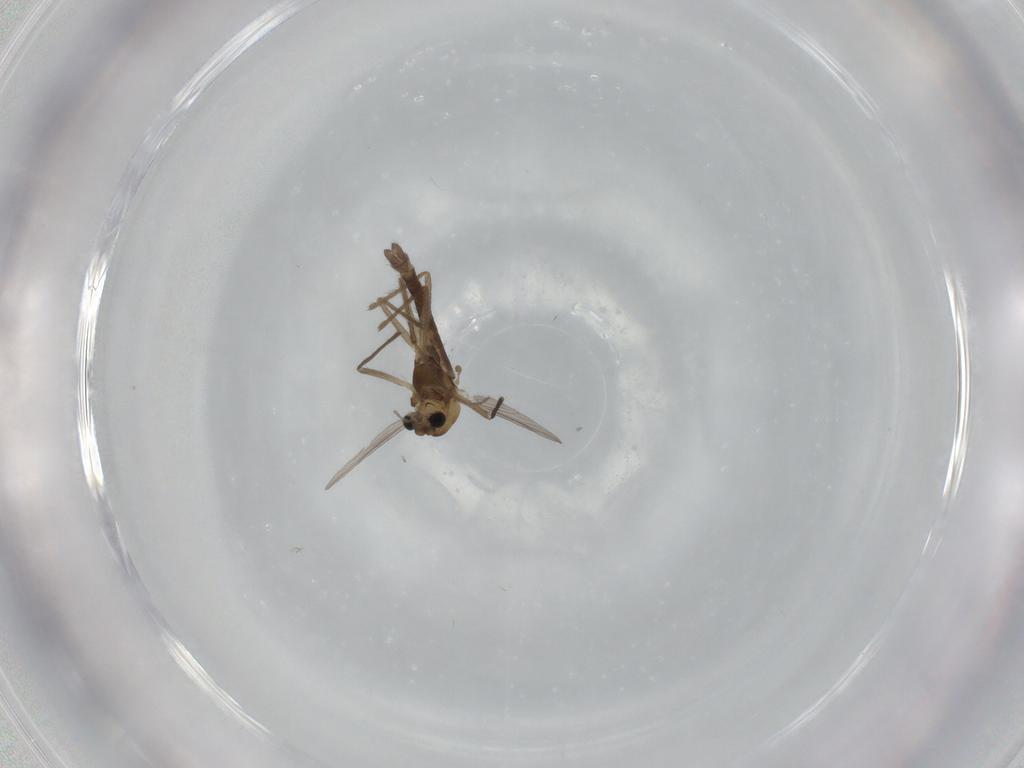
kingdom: Animalia
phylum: Arthropoda
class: Insecta
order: Diptera
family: Chironomidae
